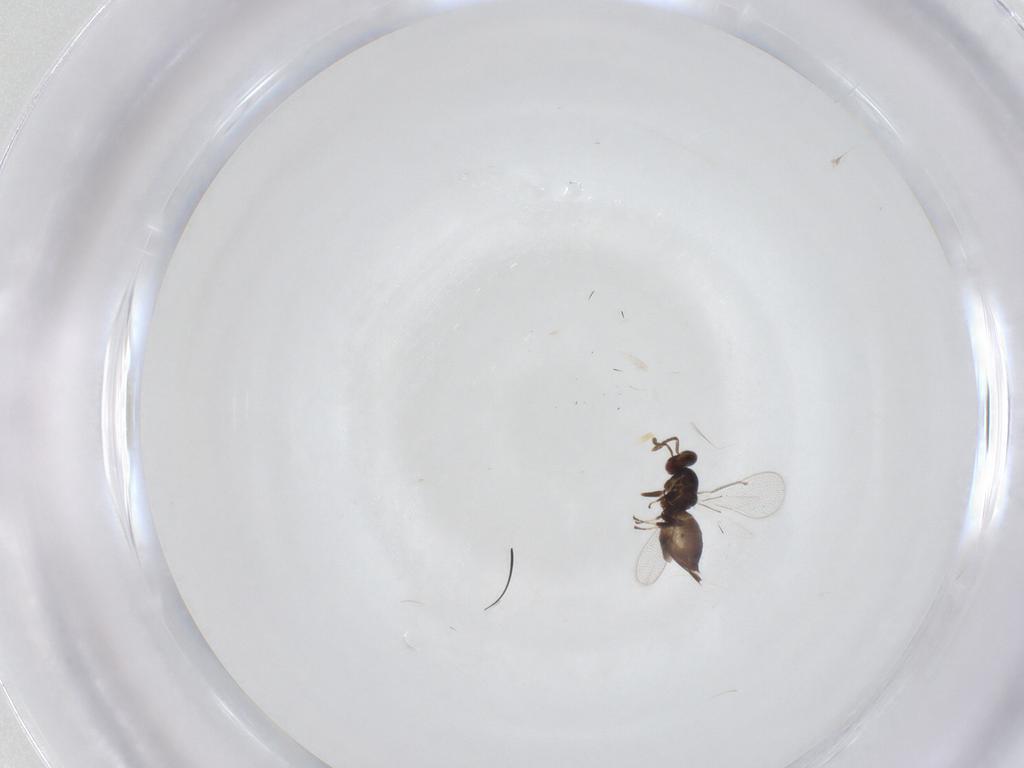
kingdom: Animalia
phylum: Arthropoda
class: Insecta
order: Hymenoptera
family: Eulophidae
